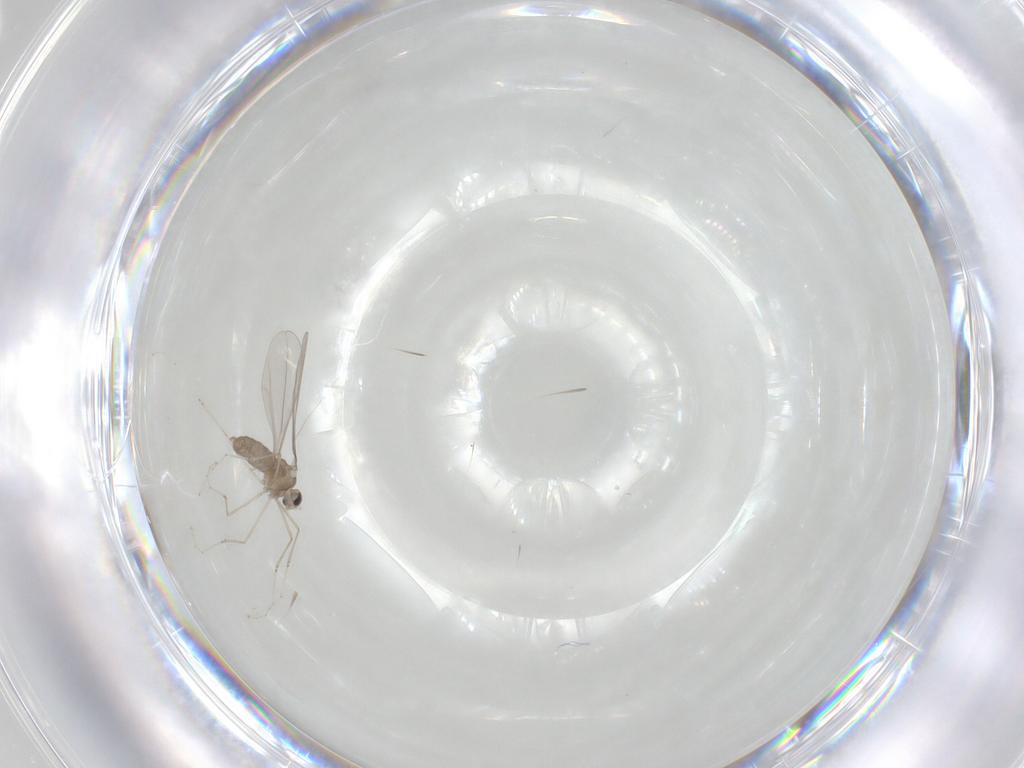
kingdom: Animalia
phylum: Arthropoda
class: Insecta
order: Diptera
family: Cecidomyiidae
